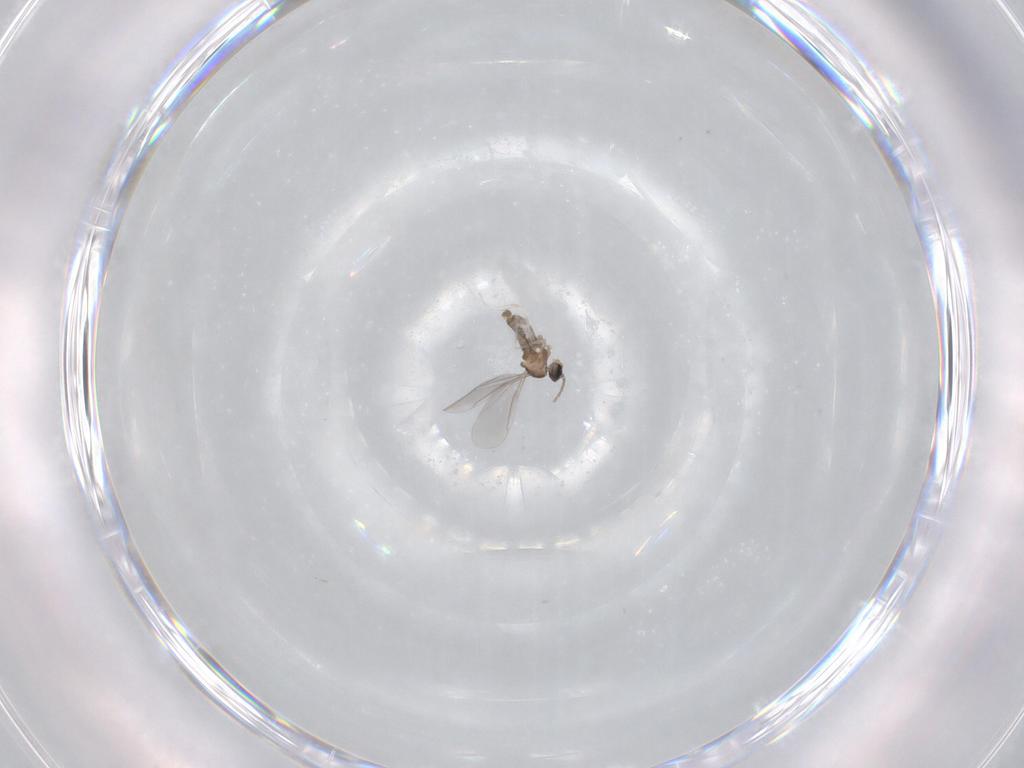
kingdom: Animalia
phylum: Arthropoda
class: Insecta
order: Diptera
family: Cecidomyiidae
